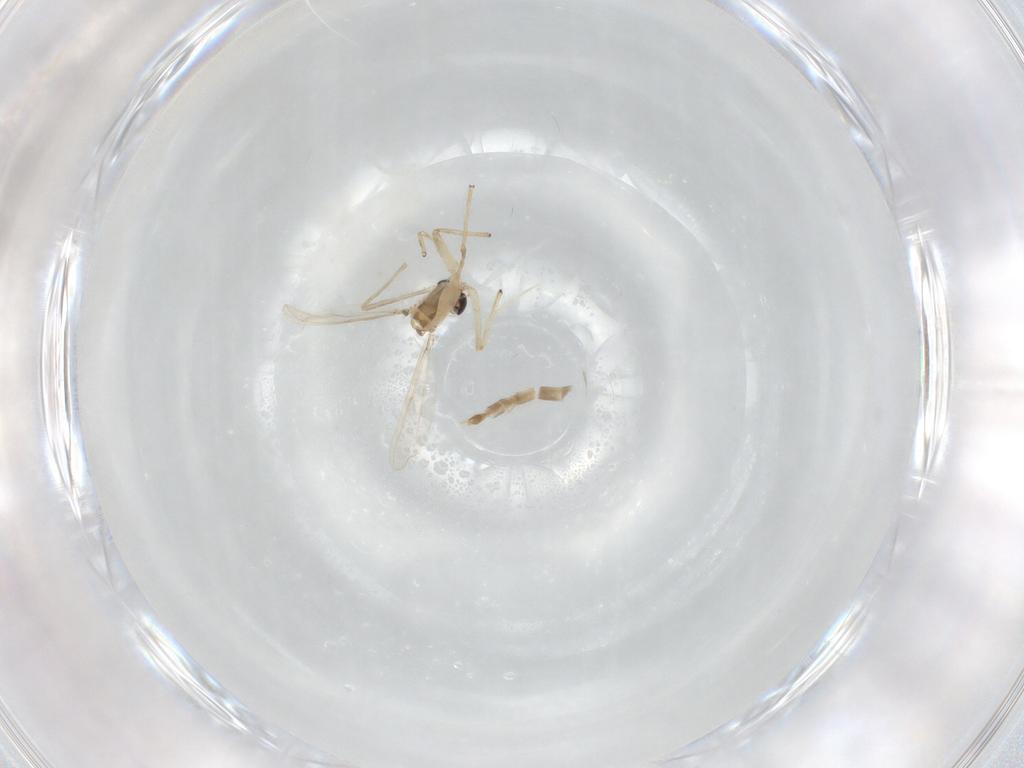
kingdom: Animalia
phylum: Arthropoda
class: Insecta
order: Diptera
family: Chironomidae
